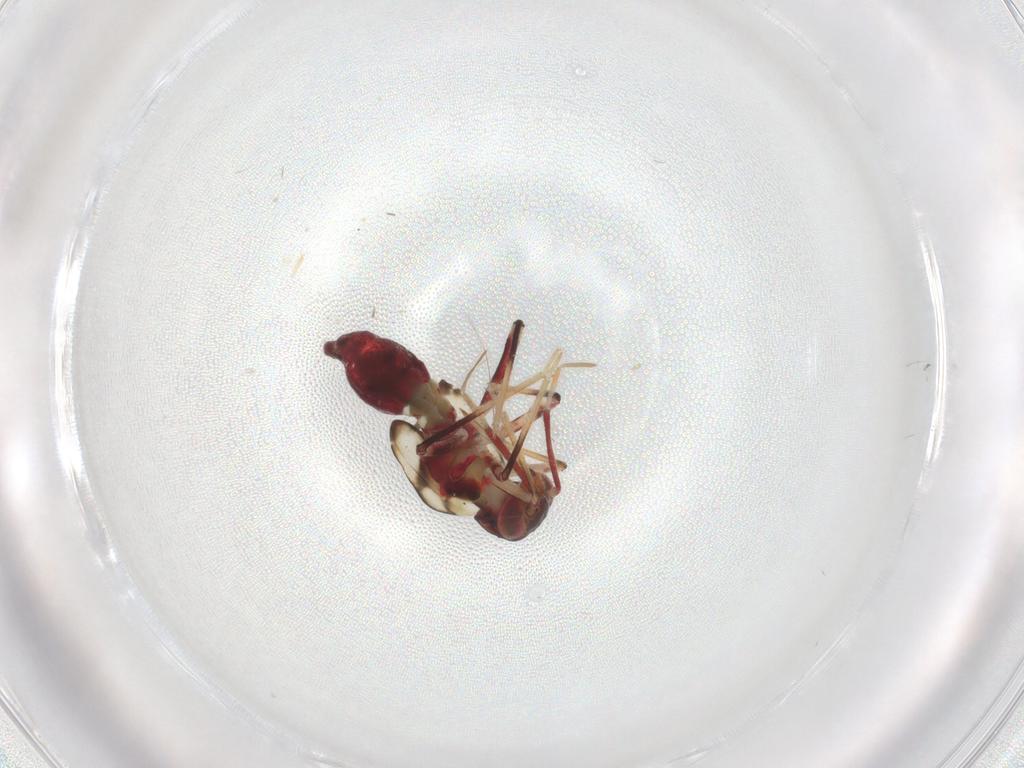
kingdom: Animalia
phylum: Arthropoda
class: Insecta
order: Hemiptera
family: Miridae
